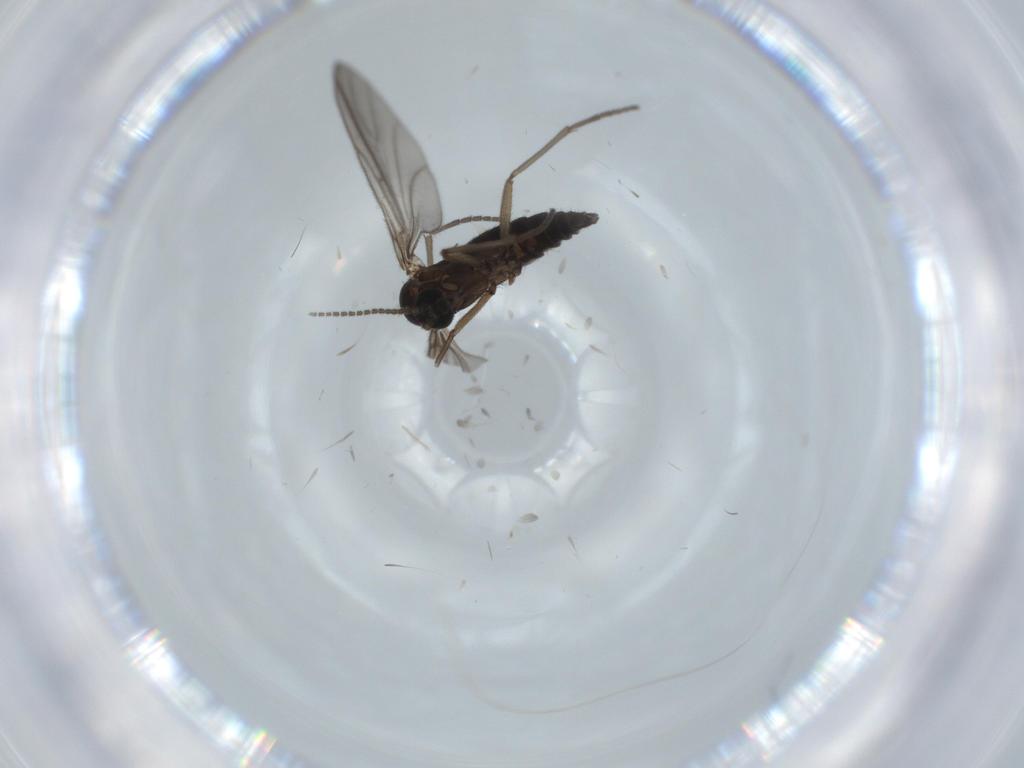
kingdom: Animalia
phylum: Arthropoda
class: Insecta
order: Diptera
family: Sciaridae
